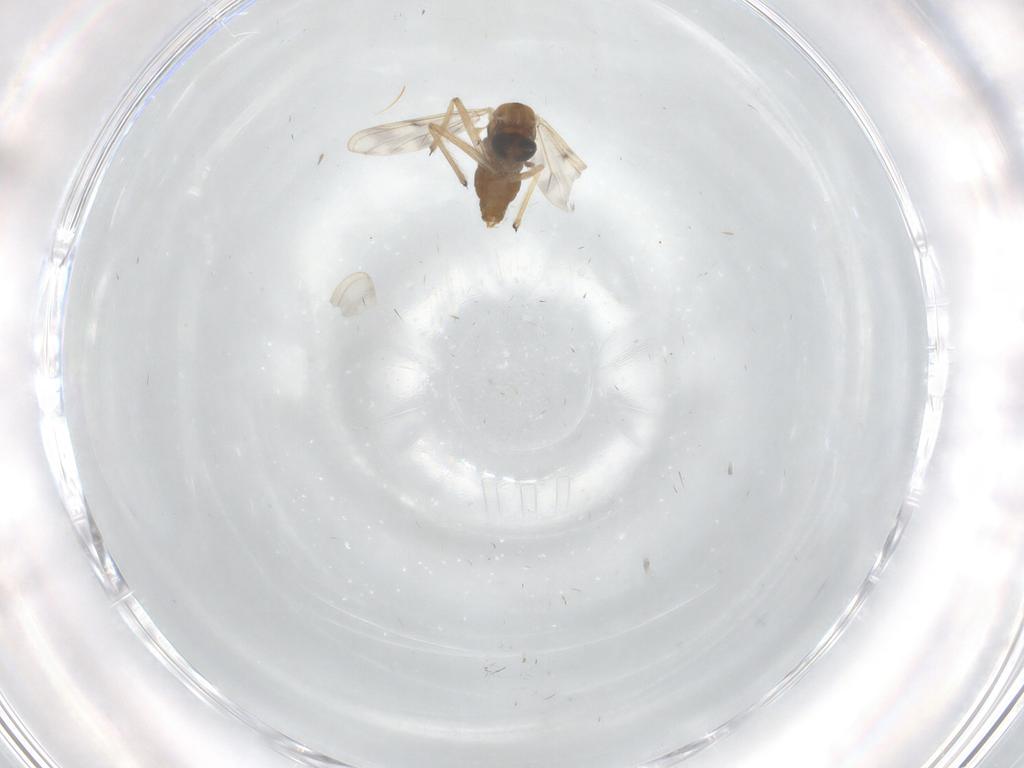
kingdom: Animalia
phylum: Arthropoda
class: Insecta
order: Diptera
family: Chironomidae
